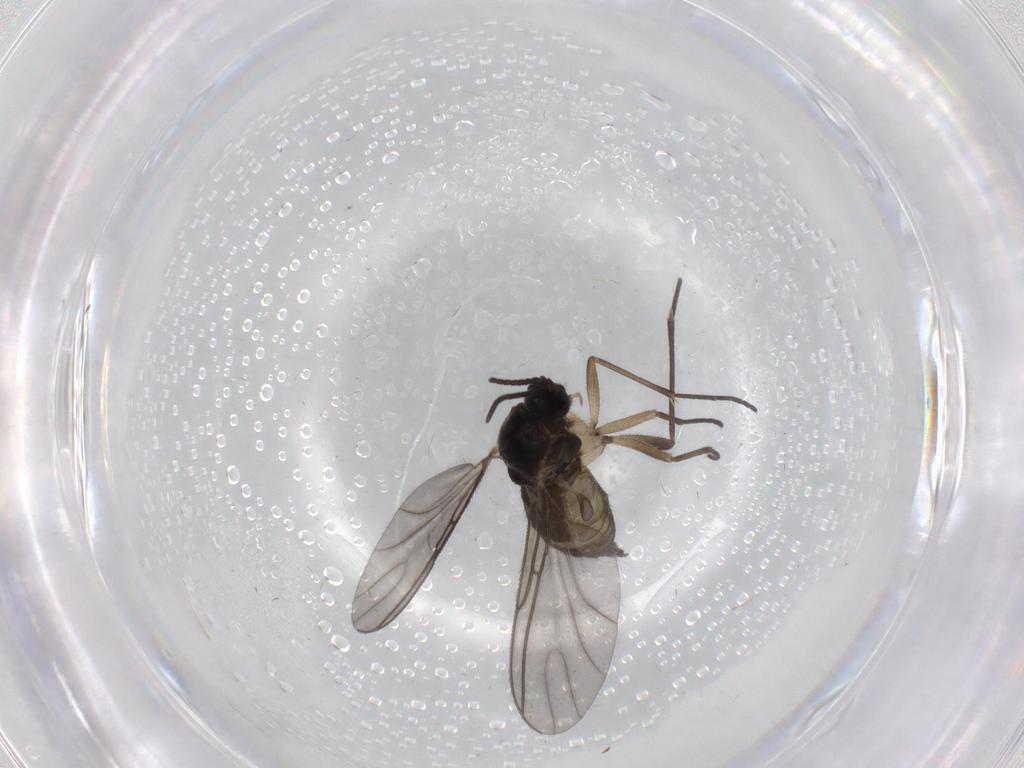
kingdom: Animalia
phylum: Arthropoda
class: Insecta
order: Diptera
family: Sciaridae
